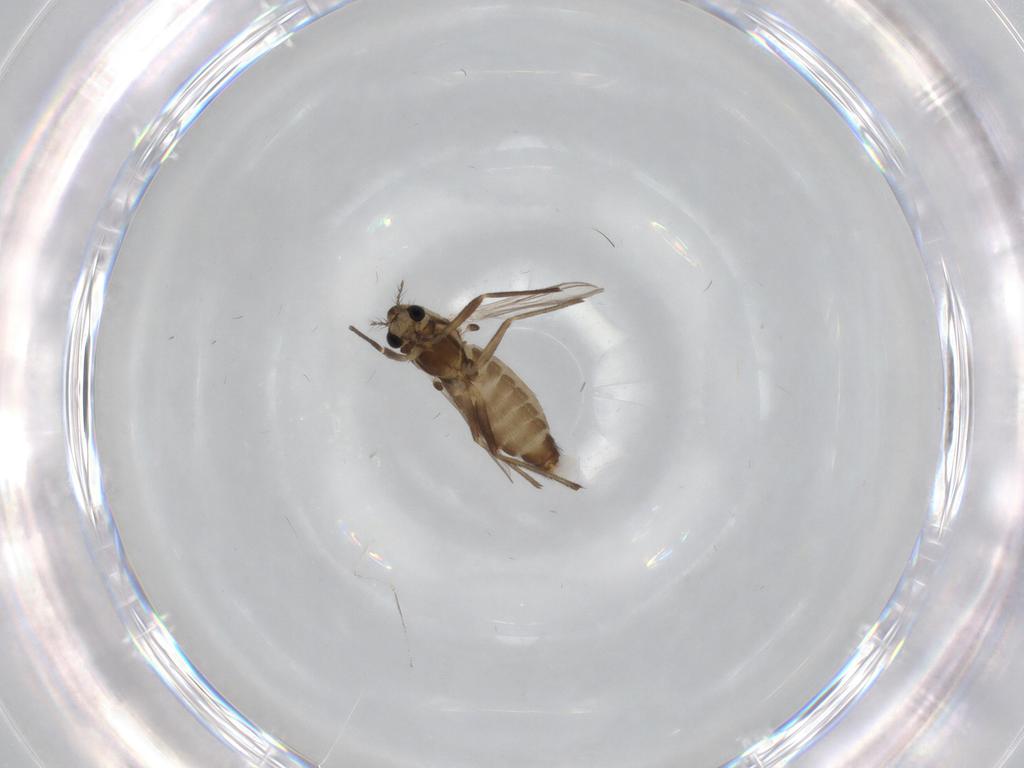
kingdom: Animalia
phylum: Arthropoda
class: Insecta
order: Diptera
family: Chironomidae
